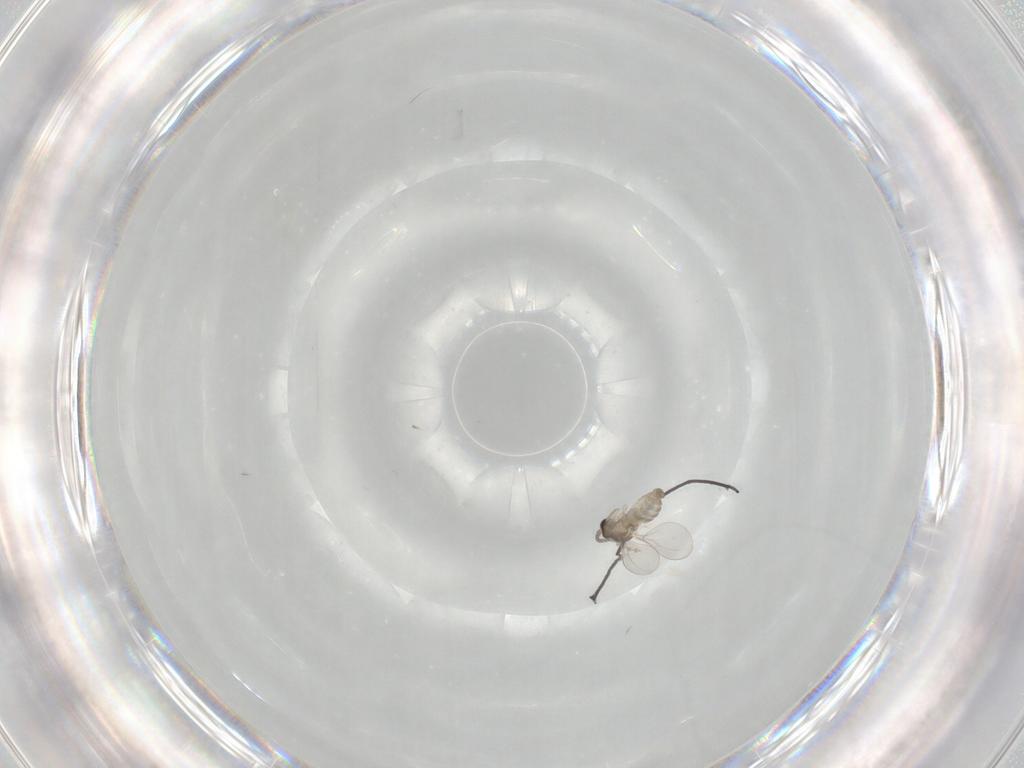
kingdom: Animalia
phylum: Arthropoda
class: Insecta
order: Diptera
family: Cecidomyiidae
